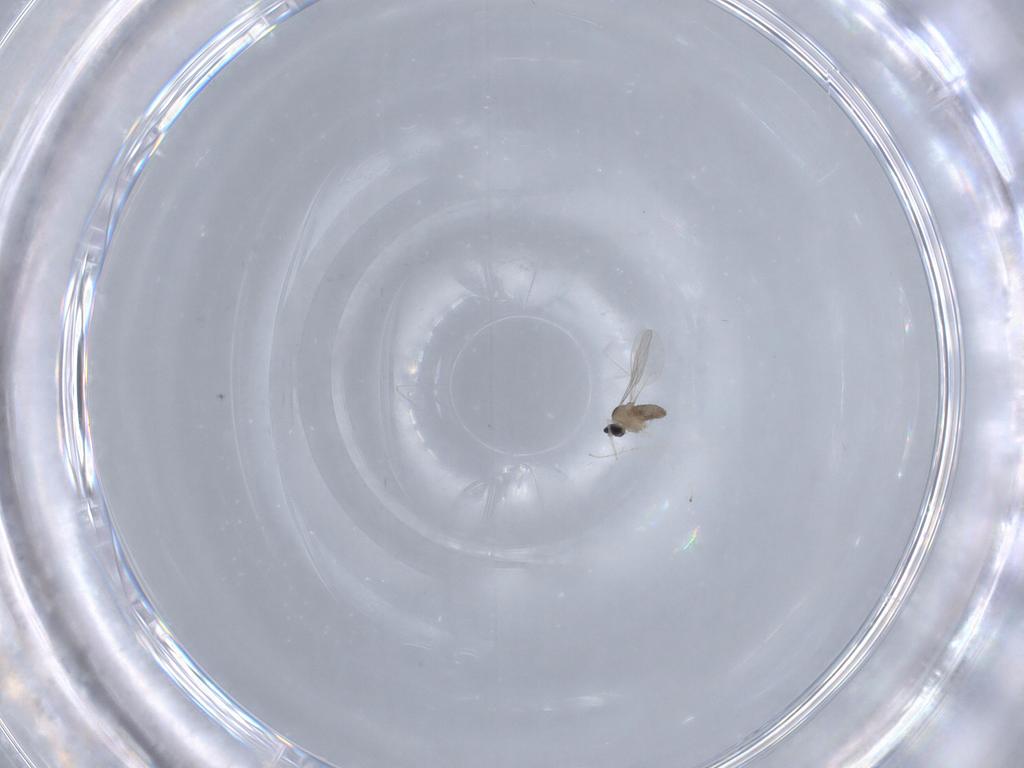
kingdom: Animalia
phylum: Arthropoda
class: Insecta
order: Diptera
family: Cecidomyiidae
